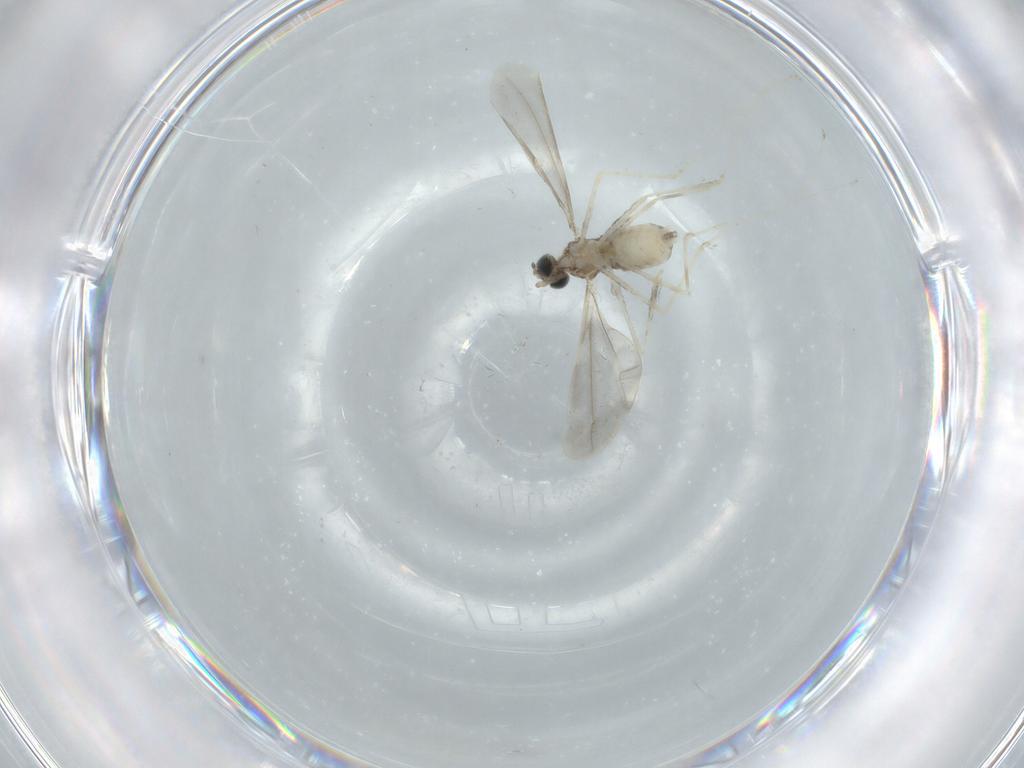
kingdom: Animalia
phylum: Arthropoda
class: Insecta
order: Diptera
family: Cecidomyiidae
